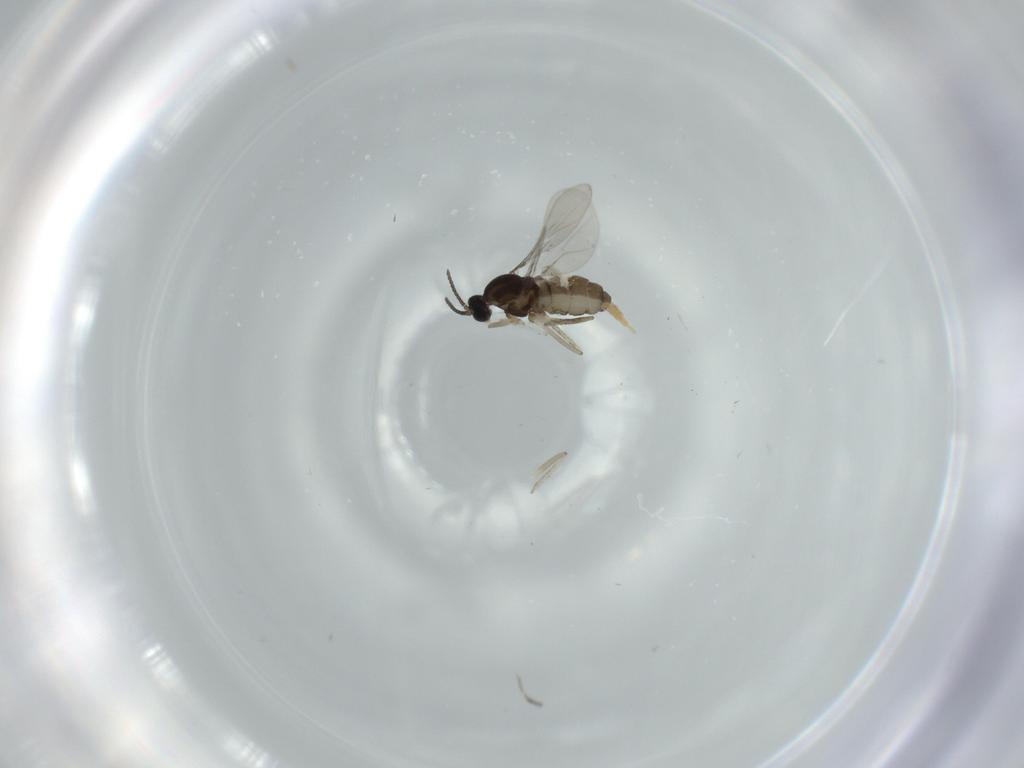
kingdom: Animalia
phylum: Arthropoda
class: Insecta
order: Diptera
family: Cecidomyiidae
